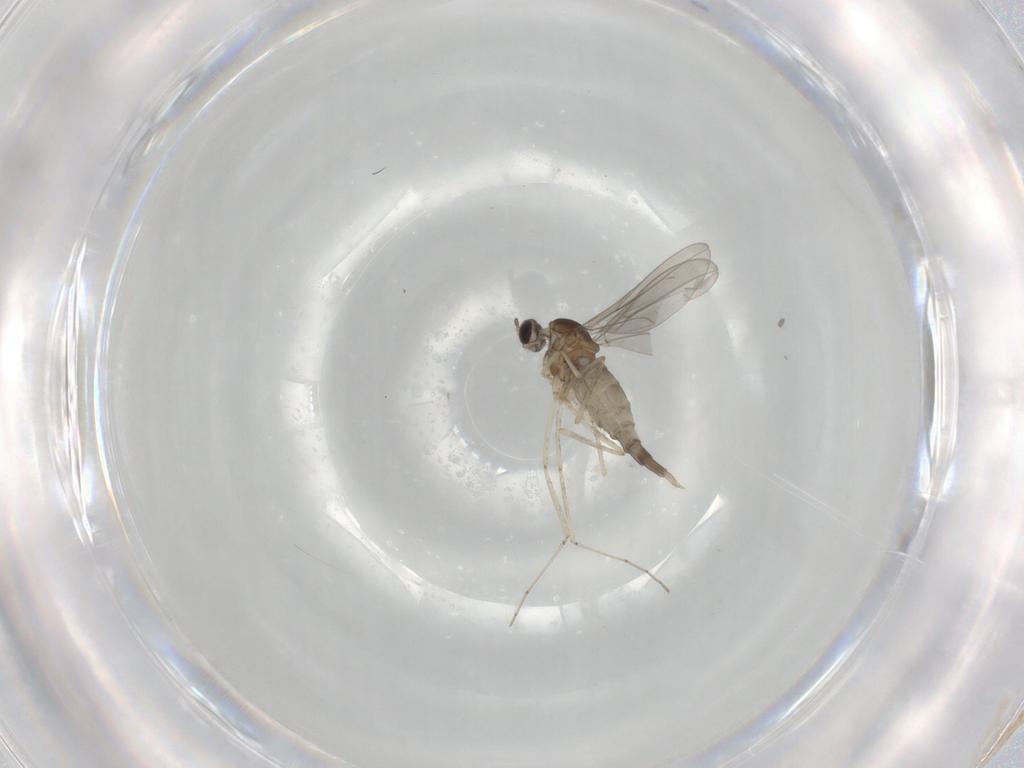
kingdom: Animalia
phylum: Arthropoda
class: Insecta
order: Diptera
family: Cecidomyiidae
